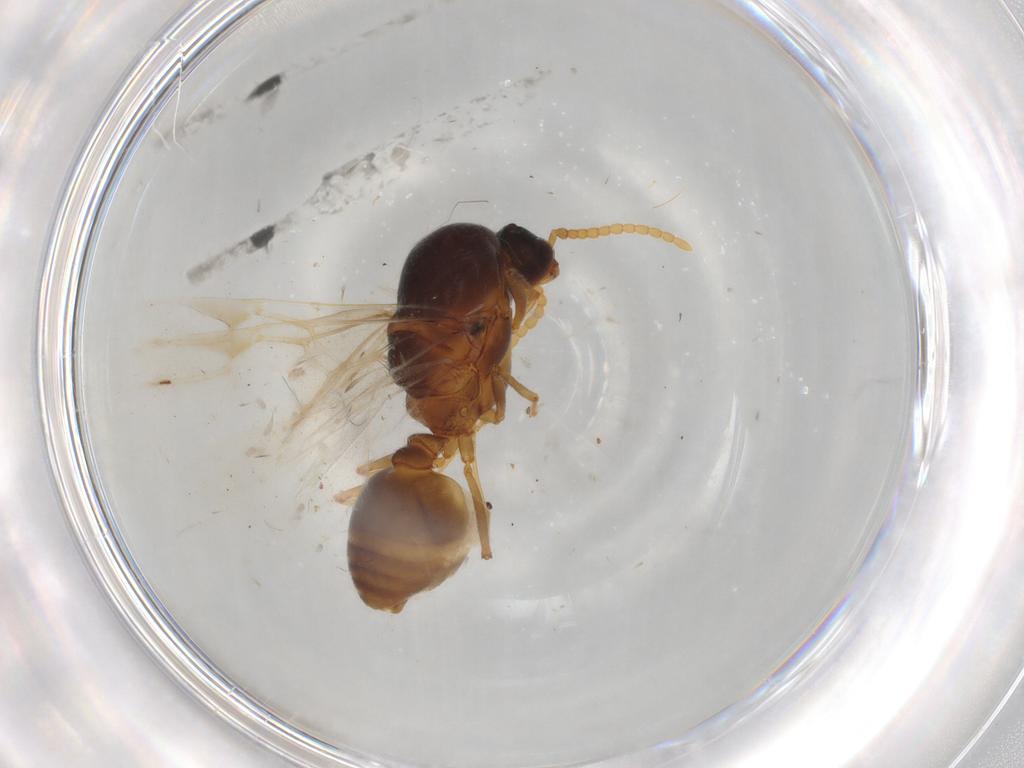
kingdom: Animalia
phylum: Arthropoda
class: Insecta
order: Hymenoptera
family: Formicidae
